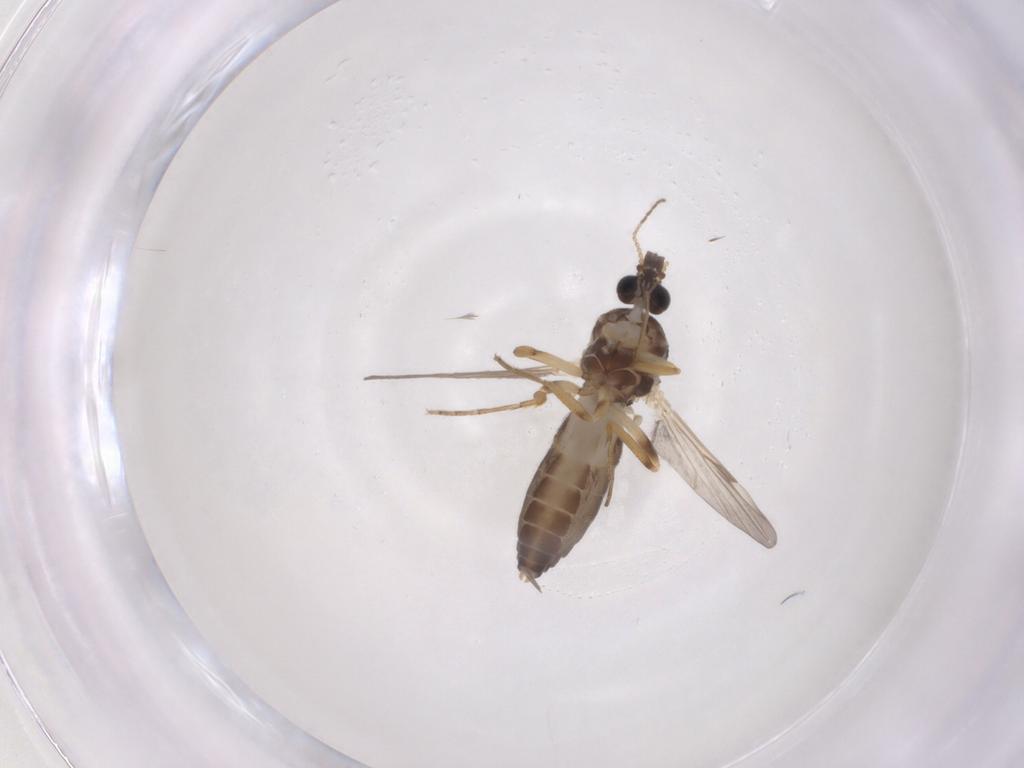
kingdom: Animalia
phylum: Arthropoda
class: Insecta
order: Diptera
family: Ceratopogonidae
